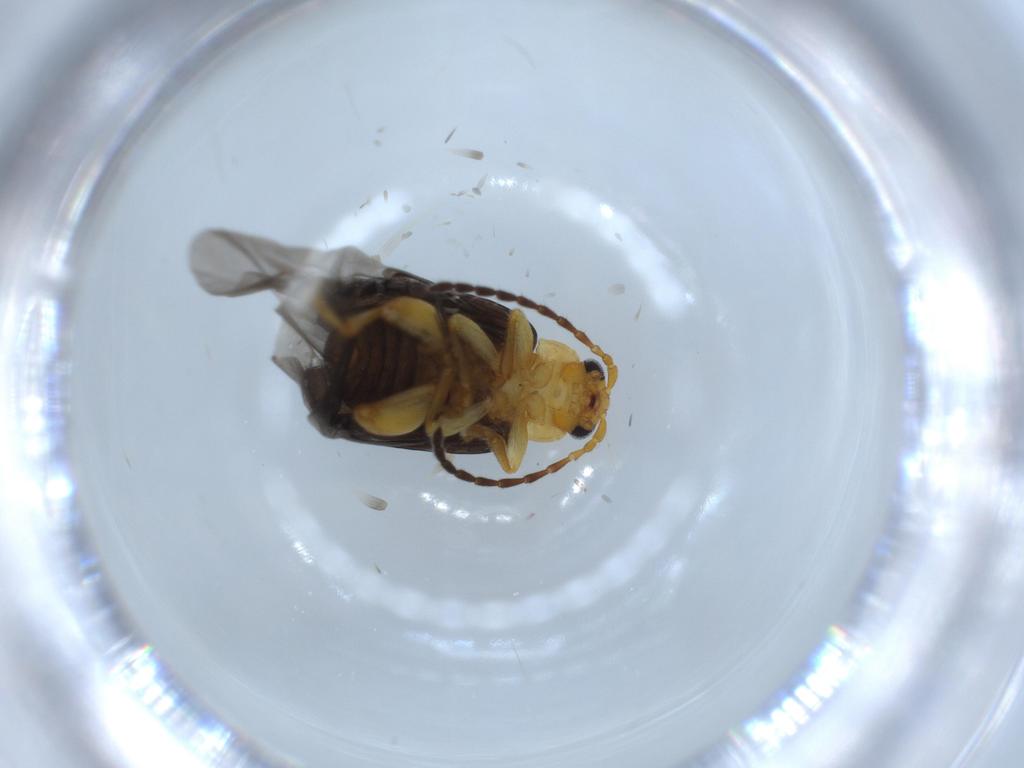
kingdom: Animalia
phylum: Arthropoda
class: Insecta
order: Coleoptera
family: Chrysomelidae
